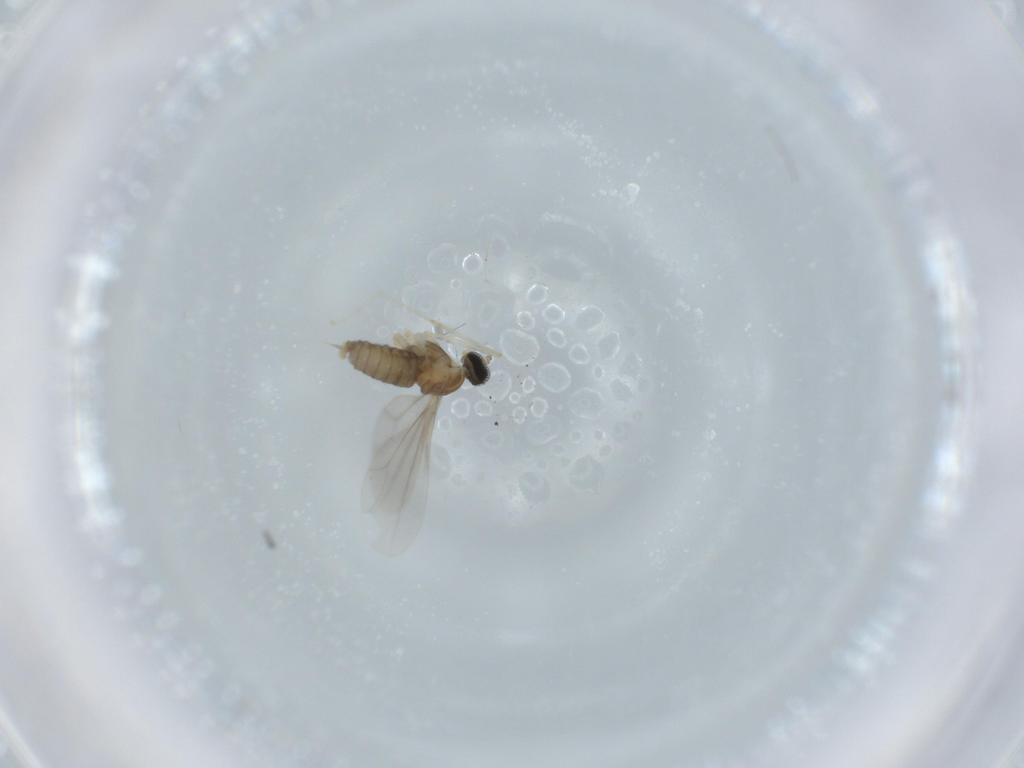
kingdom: Animalia
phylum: Arthropoda
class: Insecta
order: Diptera
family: Cecidomyiidae
